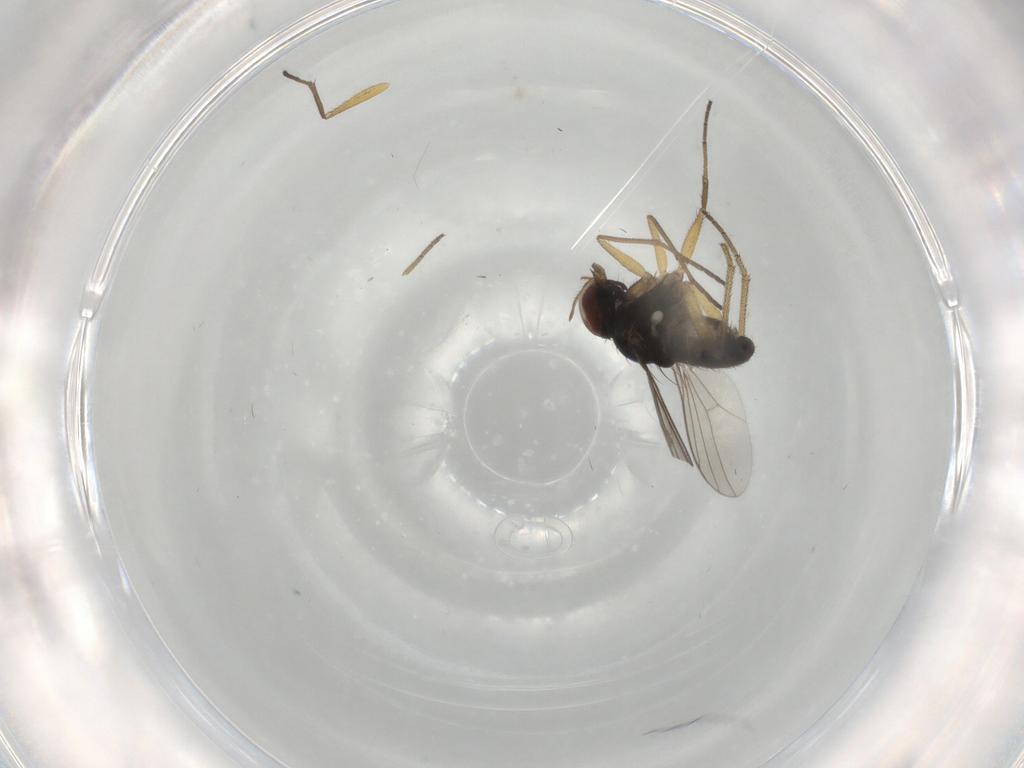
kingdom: Animalia
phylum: Arthropoda
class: Insecta
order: Diptera
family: Dolichopodidae
